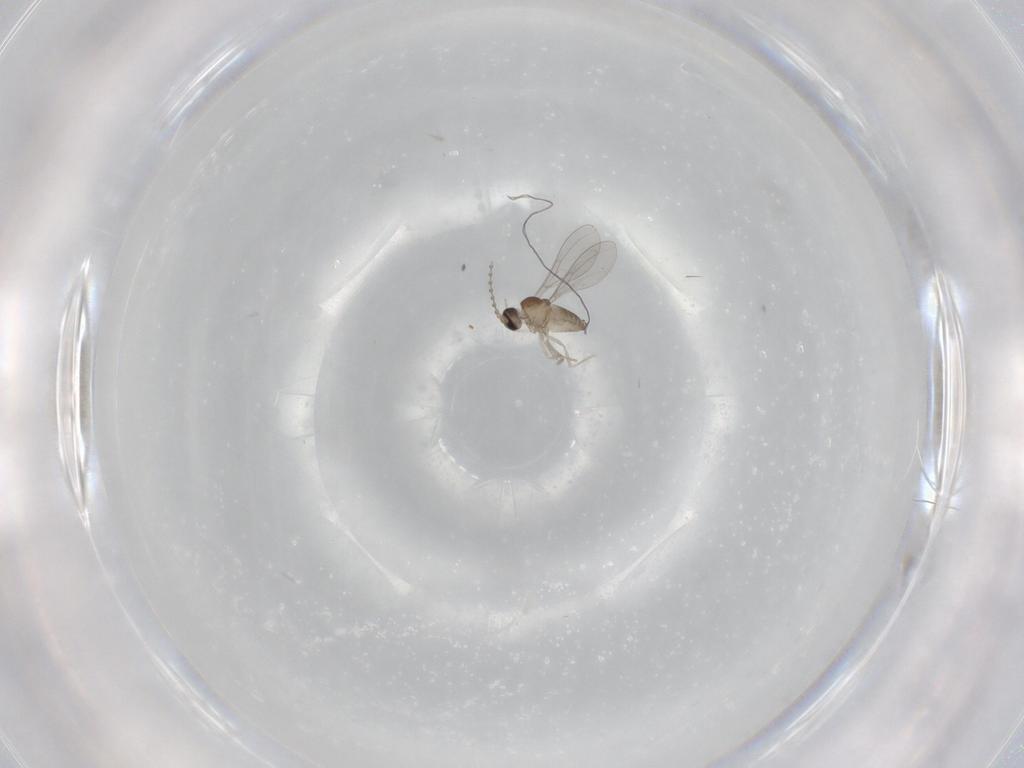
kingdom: Animalia
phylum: Arthropoda
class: Insecta
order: Diptera
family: Cecidomyiidae
